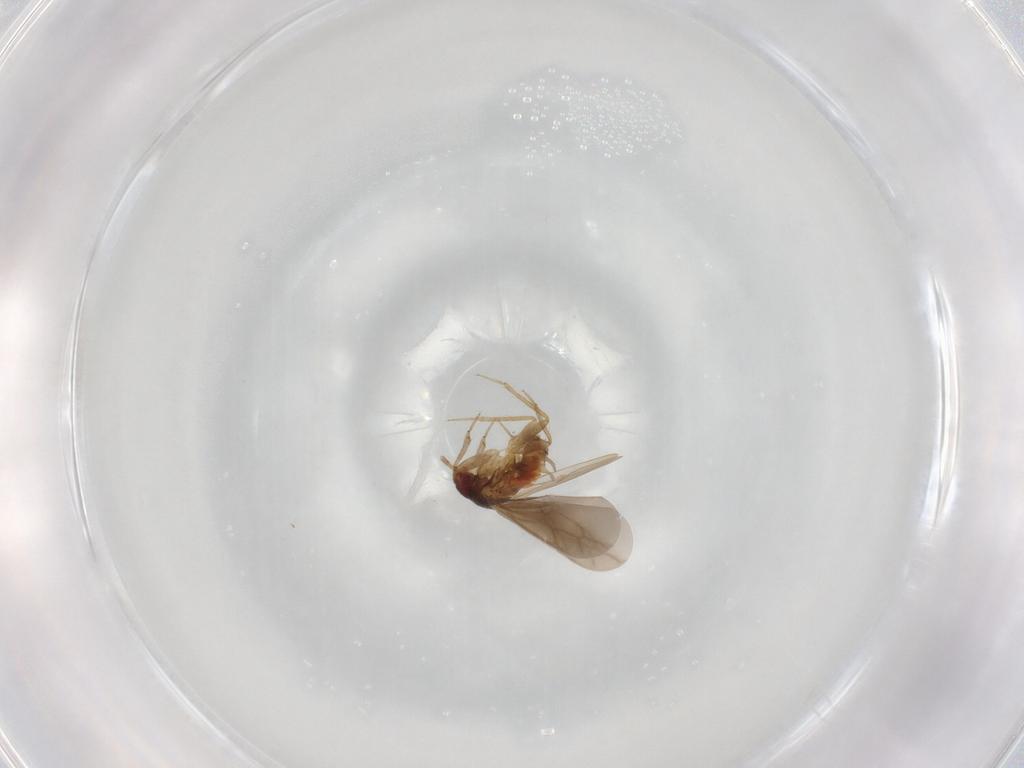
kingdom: Animalia
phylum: Arthropoda
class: Insecta
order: Hemiptera
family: Ceratocombidae
